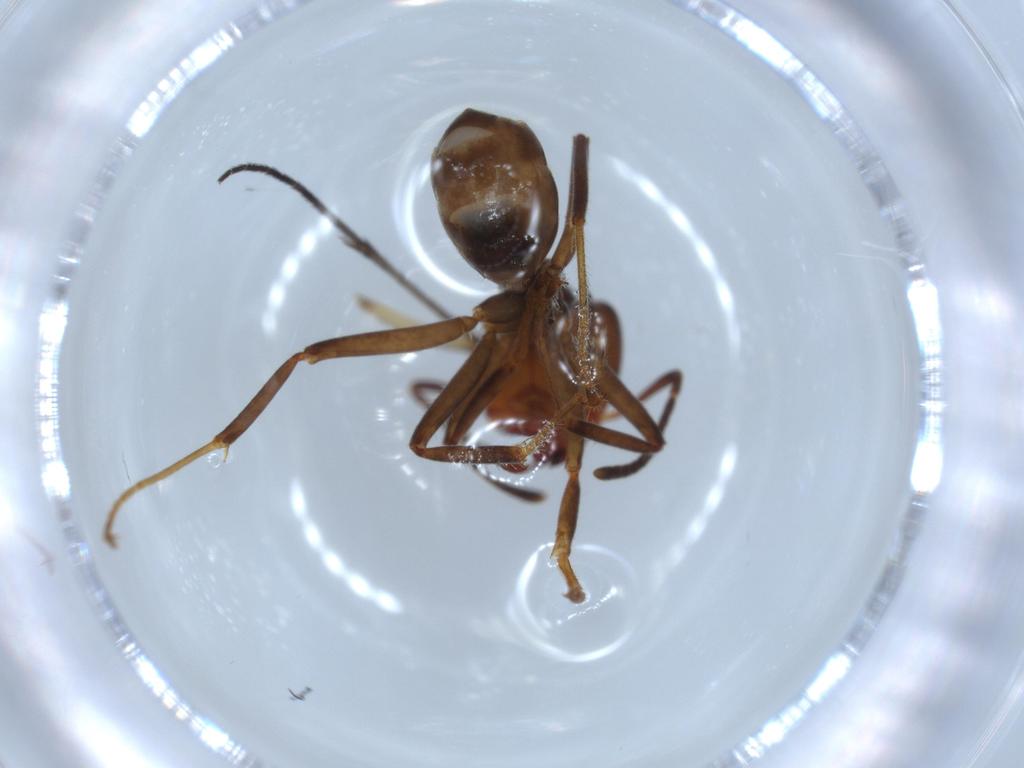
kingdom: Animalia
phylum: Arthropoda
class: Insecta
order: Hymenoptera
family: Formicidae
